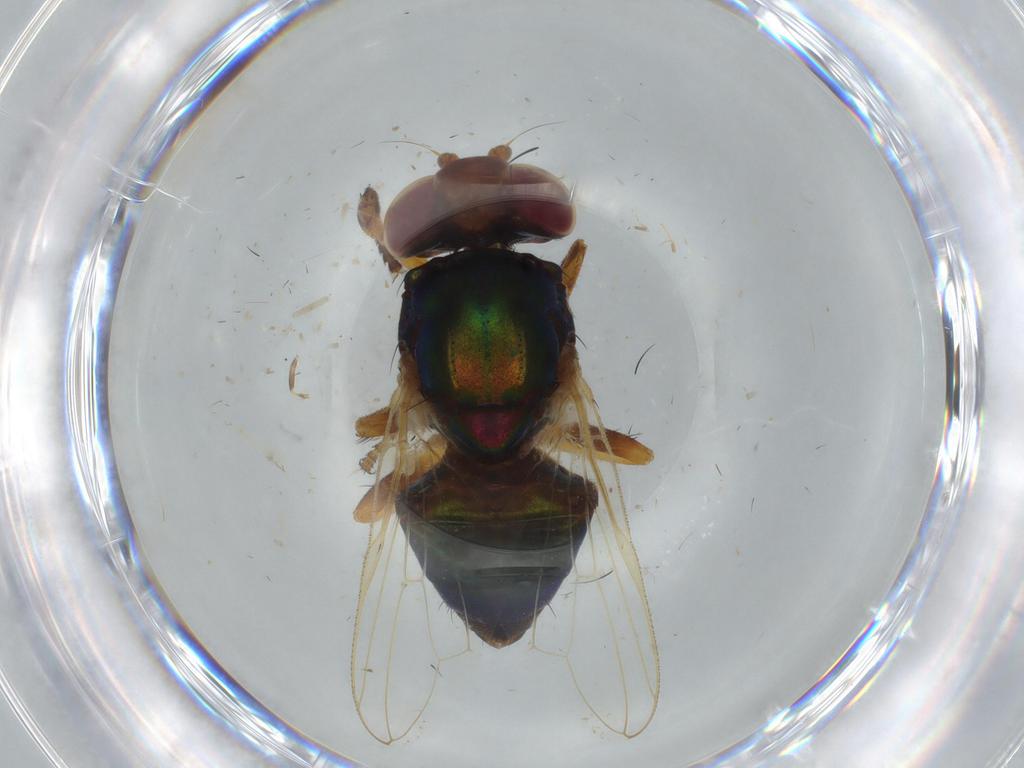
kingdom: Animalia
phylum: Arthropoda
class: Insecta
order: Diptera
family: Ulidiidae
